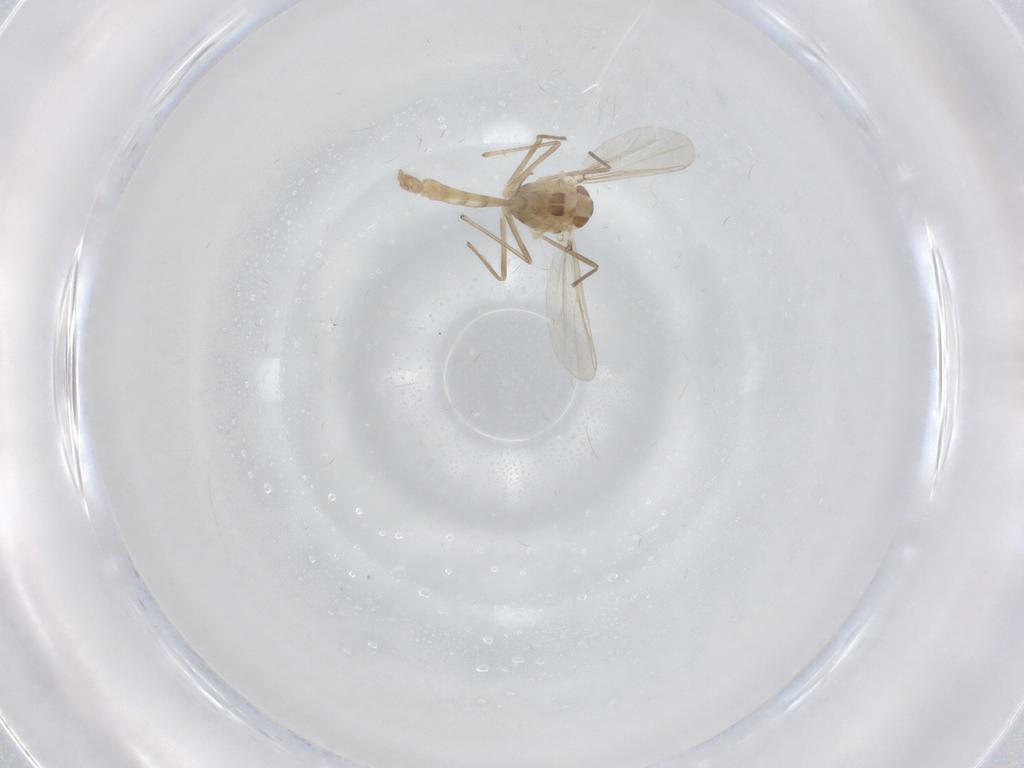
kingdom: Animalia
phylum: Arthropoda
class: Insecta
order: Diptera
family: Chironomidae
